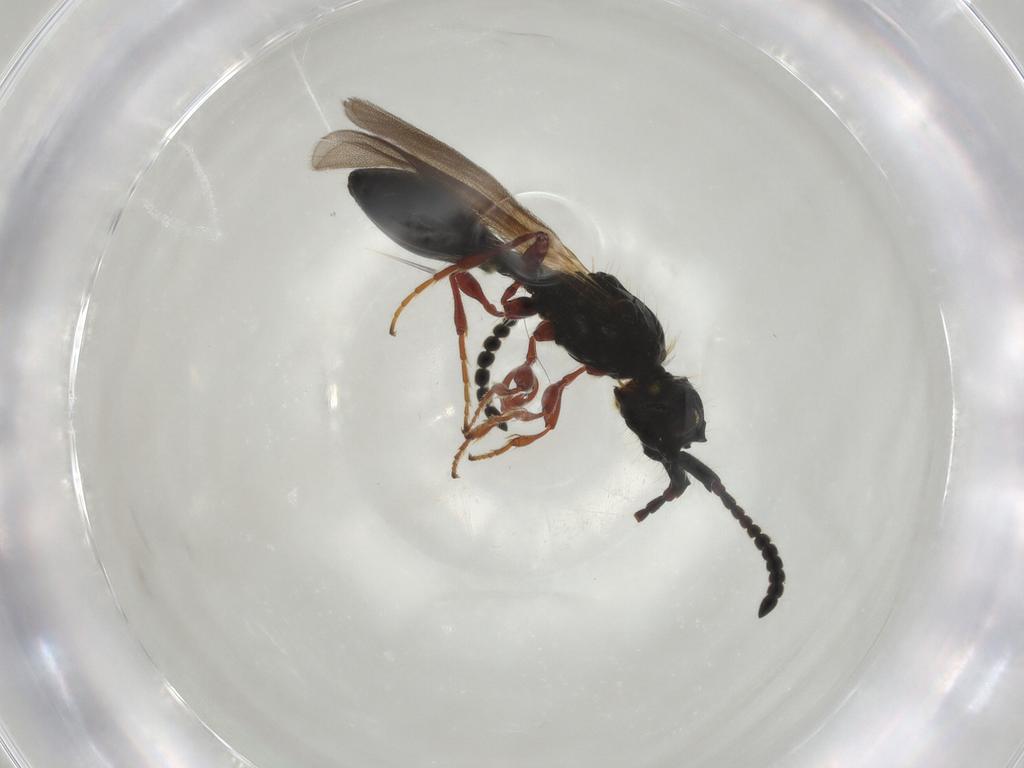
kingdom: Animalia
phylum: Arthropoda
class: Insecta
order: Hymenoptera
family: Diapriidae
